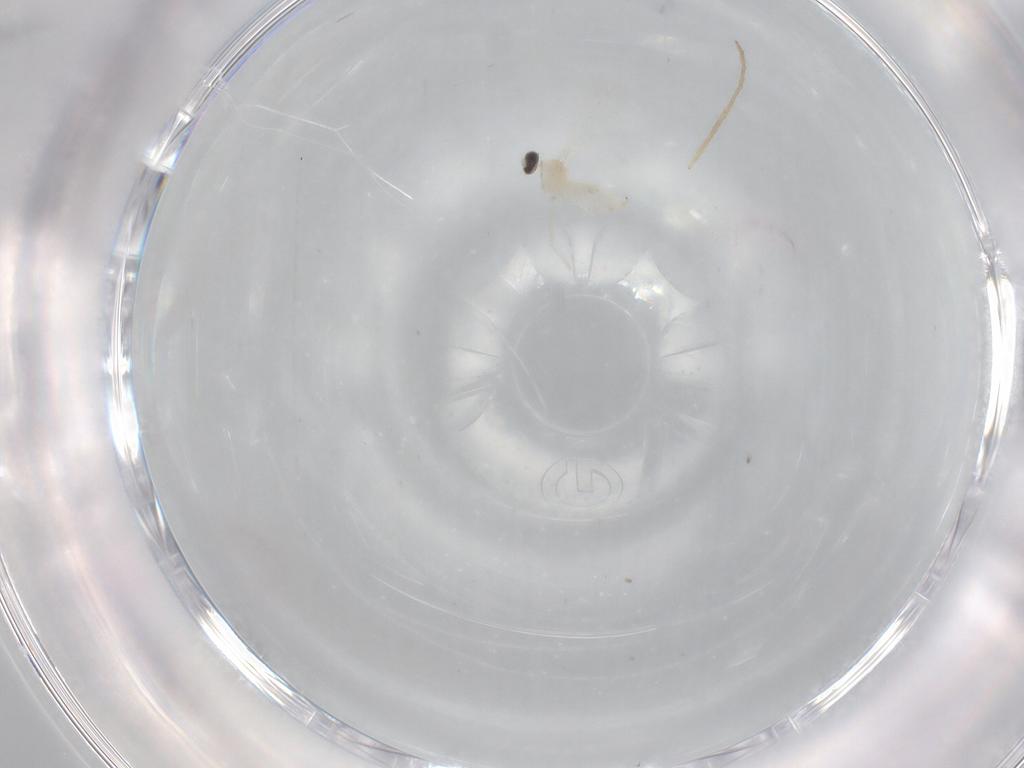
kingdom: Animalia
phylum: Arthropoda
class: Insecta
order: Diptera
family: Cecidomyiidae
